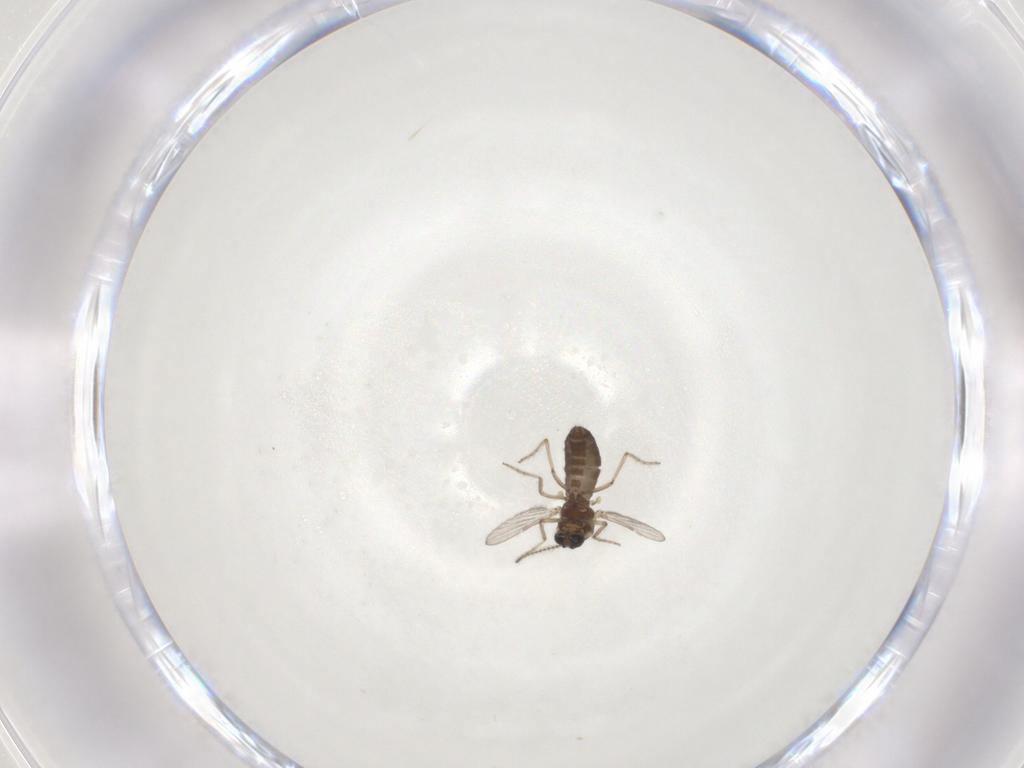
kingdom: Animalia
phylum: Arthropoda
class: Insecta
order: Diptera
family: Ceratopogonidae
